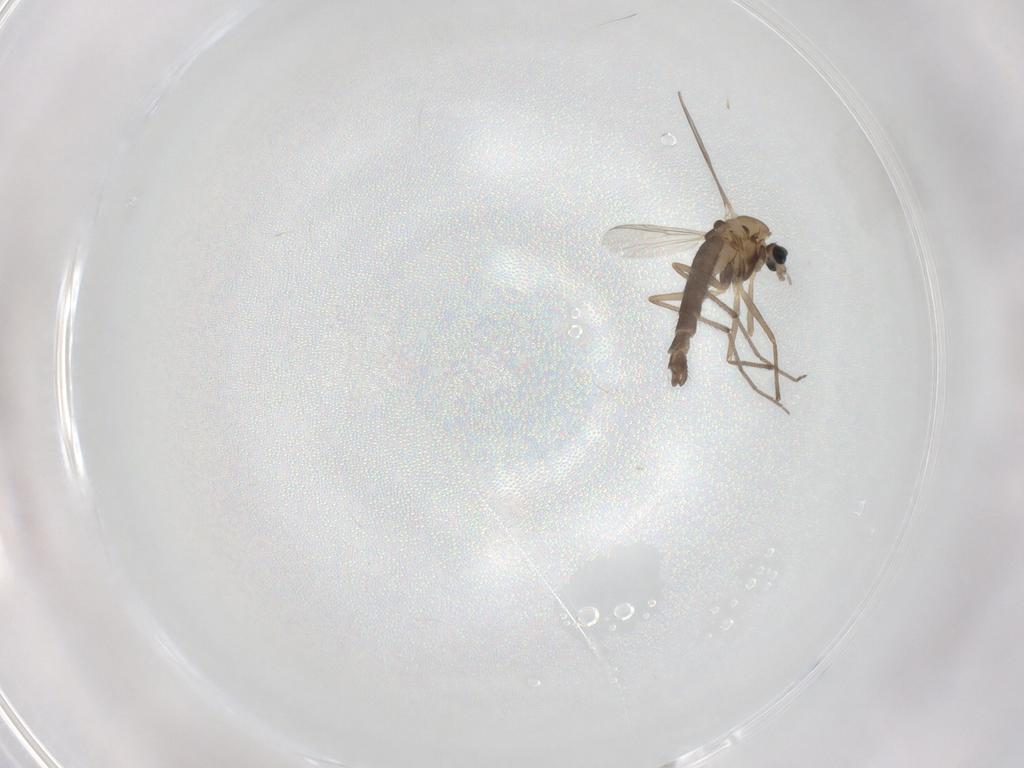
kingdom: Animalia
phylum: Arthropoda
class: Insecta
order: Diptera
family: Chironomidae
